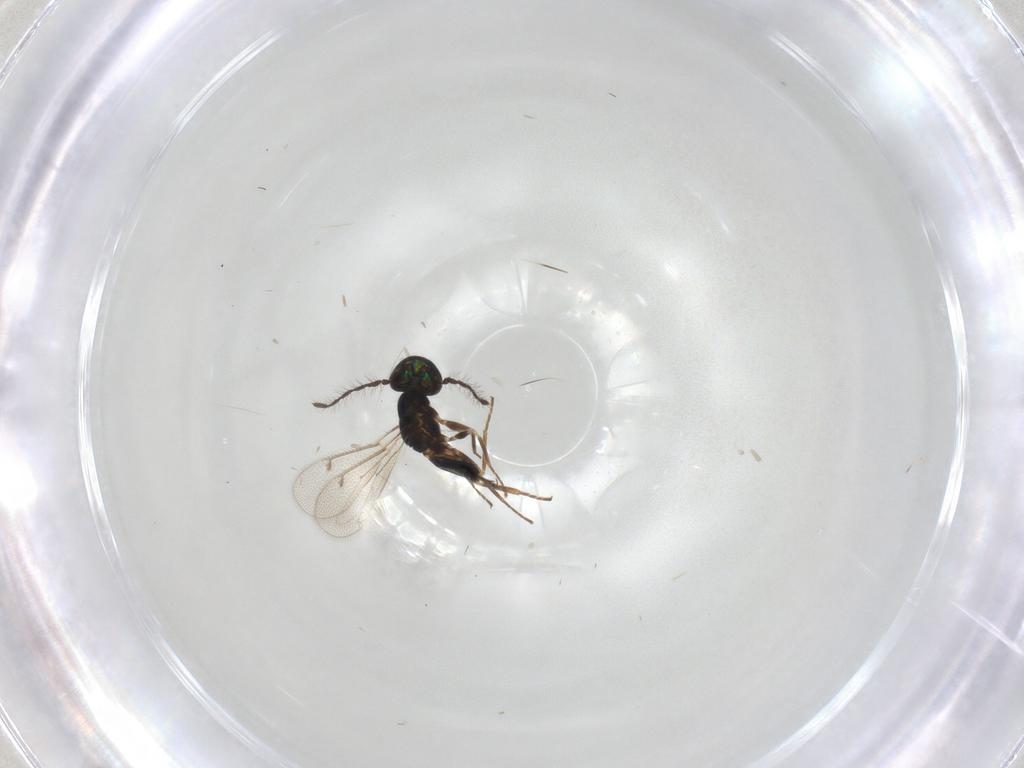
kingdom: Animalia
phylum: Arthropoda
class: Insecta
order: Hymenoptera
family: Eulophidae
